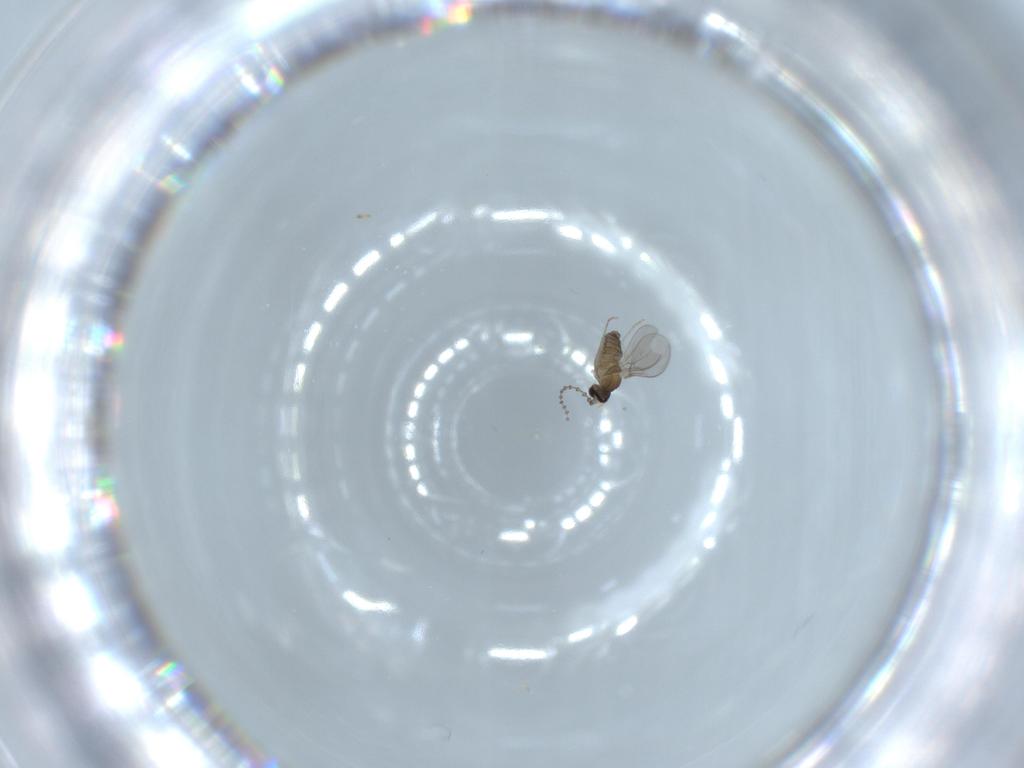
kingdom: Animalia
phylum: Arthropoda
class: Insecta
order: Diptera
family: Cecidomyiidae
